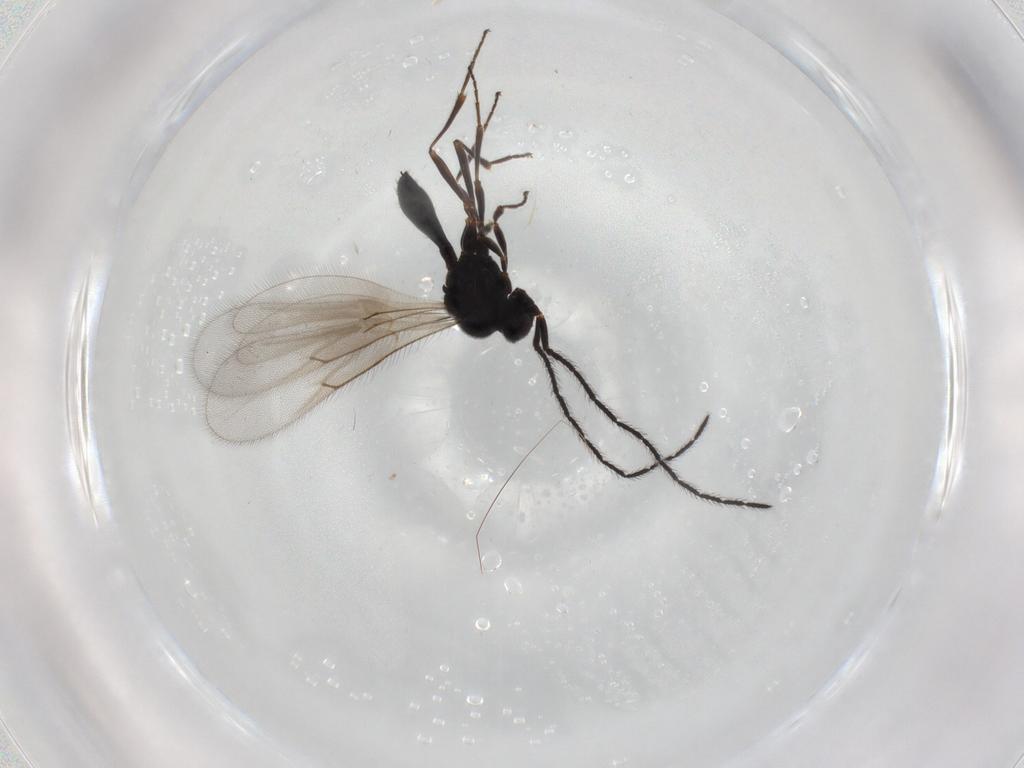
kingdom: Animalia
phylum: Arthropoda
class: Insecta
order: Hymenoptera
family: Scelionidae
